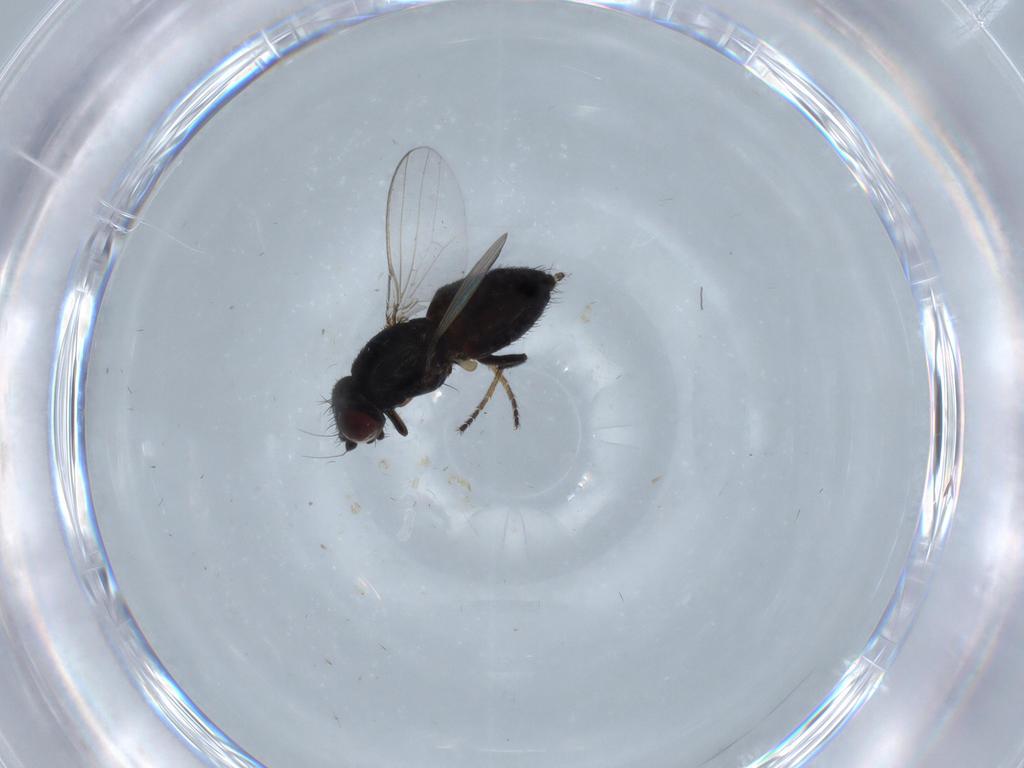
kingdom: Animalia
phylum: Arthropoda
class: Insecta
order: Diptera
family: Milichiidae
